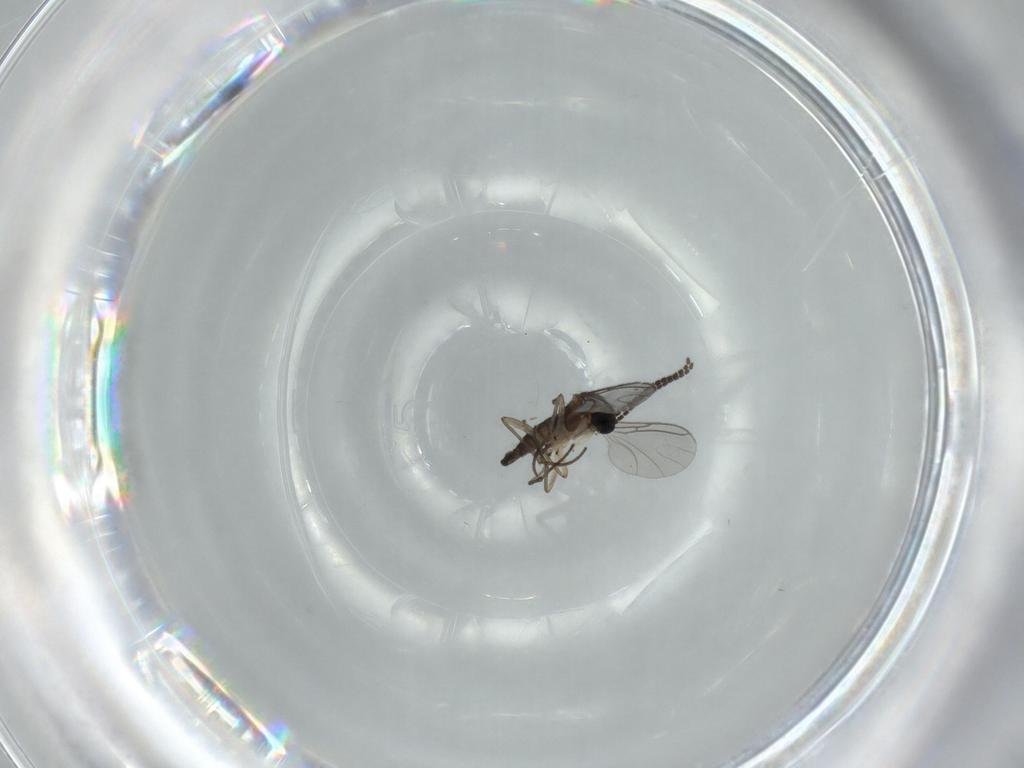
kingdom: Animalia
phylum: Arthropoda
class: Insecta
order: Diptera
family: Sciaridae
